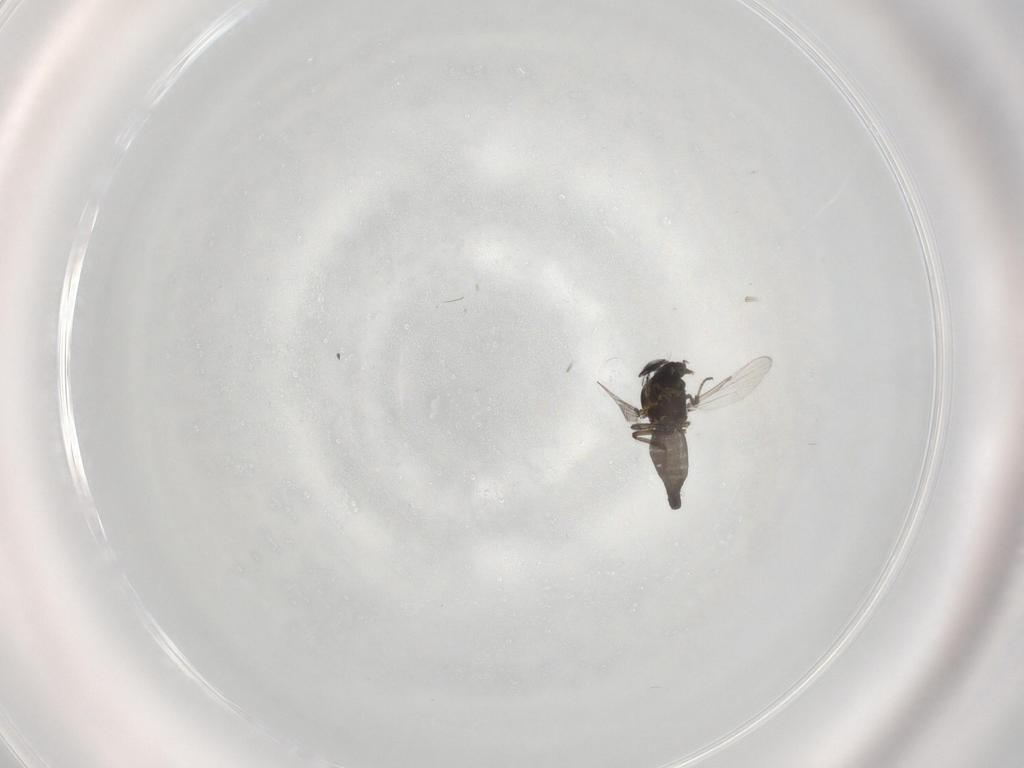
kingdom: Animalia
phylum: Arthropoda
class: Insecta
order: Diptera
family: Ceratopogonidae
